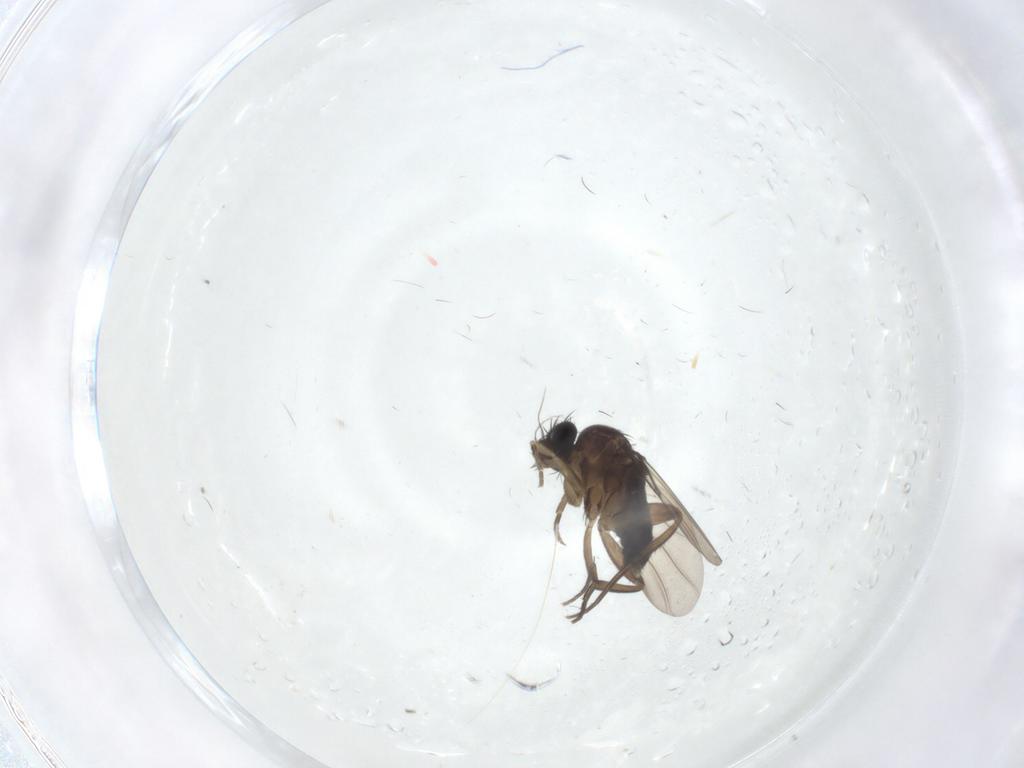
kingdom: Animalia
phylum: Arthropoda
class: Insecta
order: Diptera
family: Phoridae
